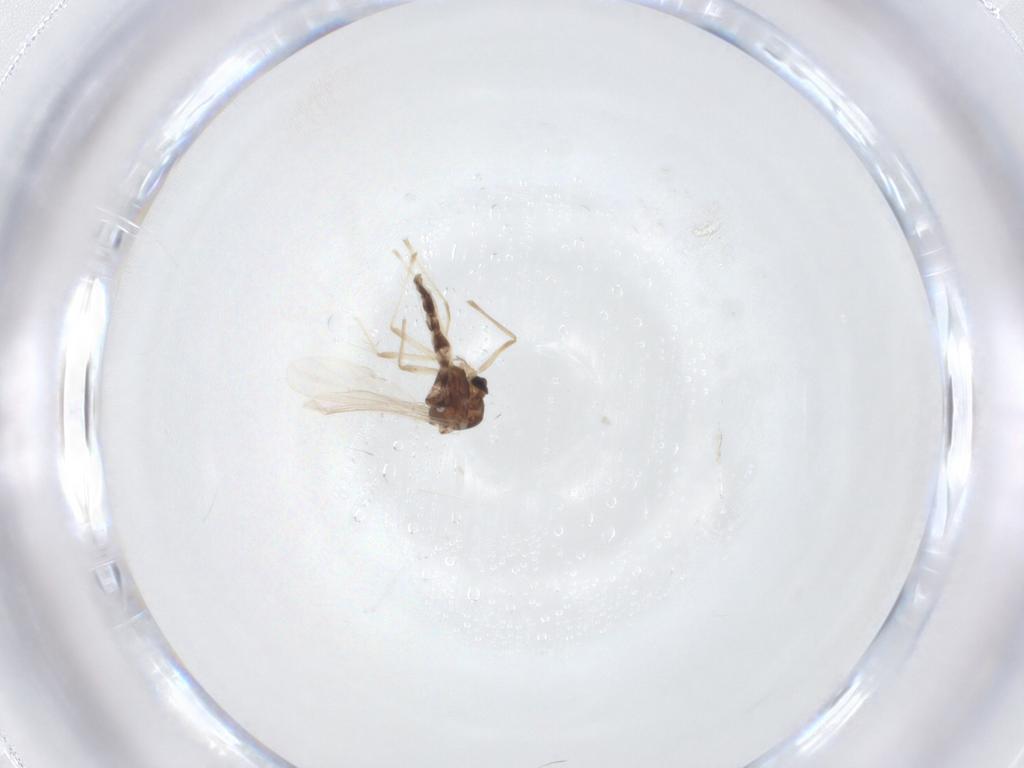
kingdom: Animalia
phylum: Arthropoda
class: Insecta
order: Diptera
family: Chironomidae
